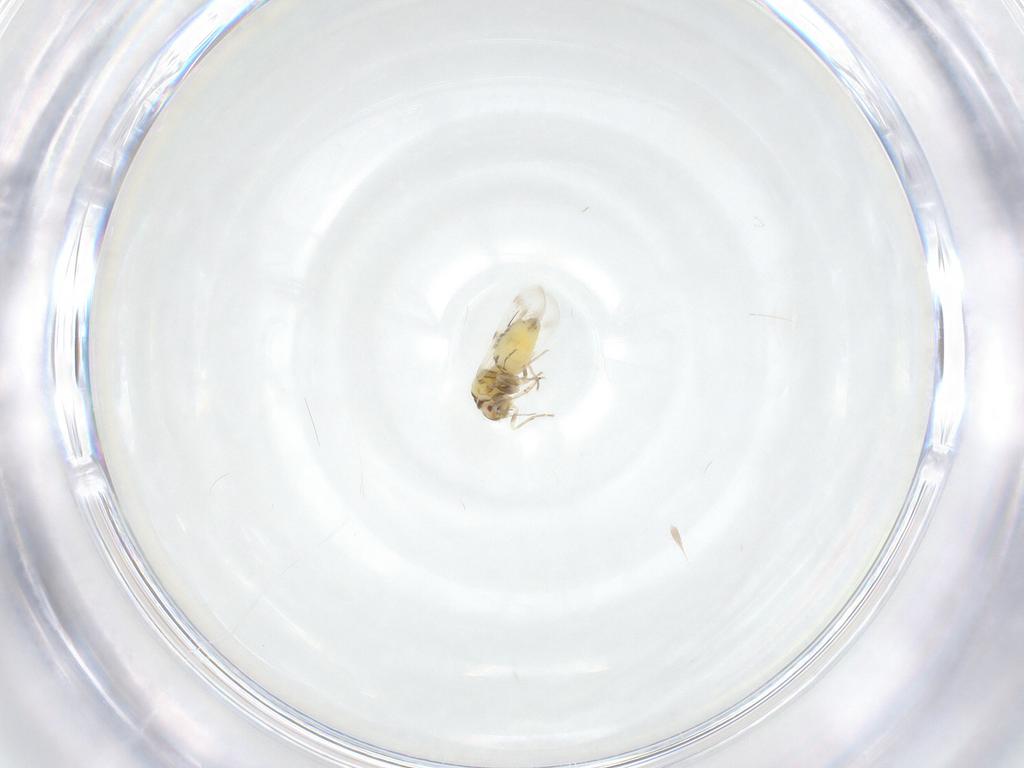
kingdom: Animalia
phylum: Arthropoda
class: Insecta
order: Hemiptera
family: Aleyrodidae
